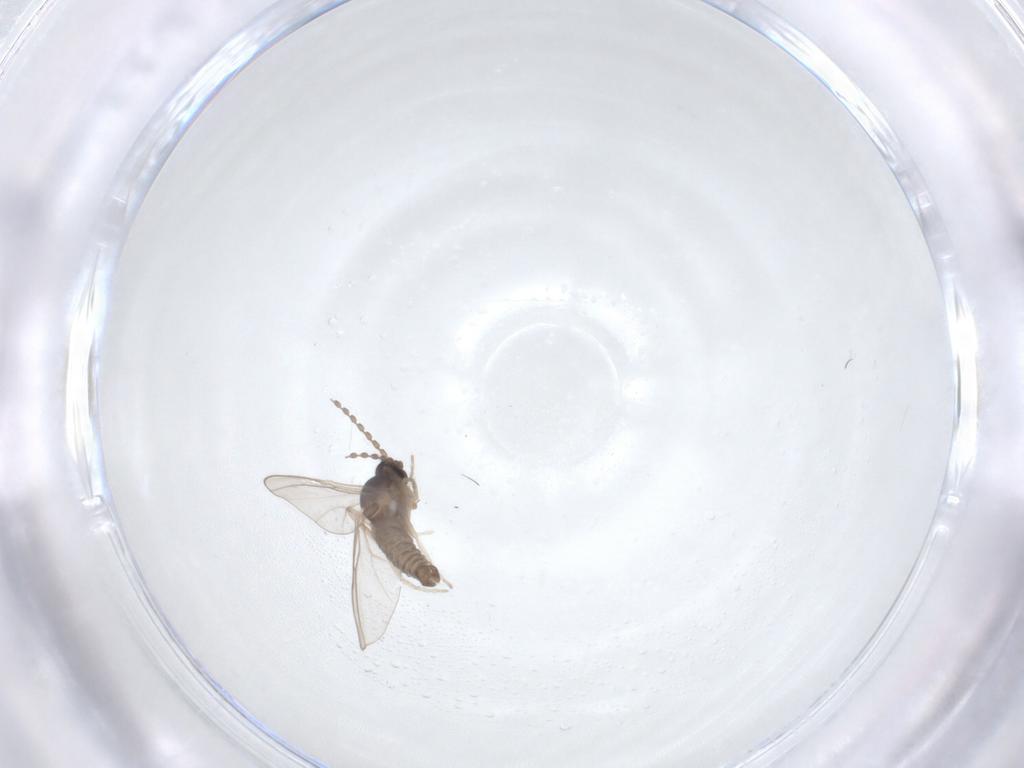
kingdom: Animalia
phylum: Arthropoda
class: Insecta
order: Diptera
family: Cecidomyiidae
